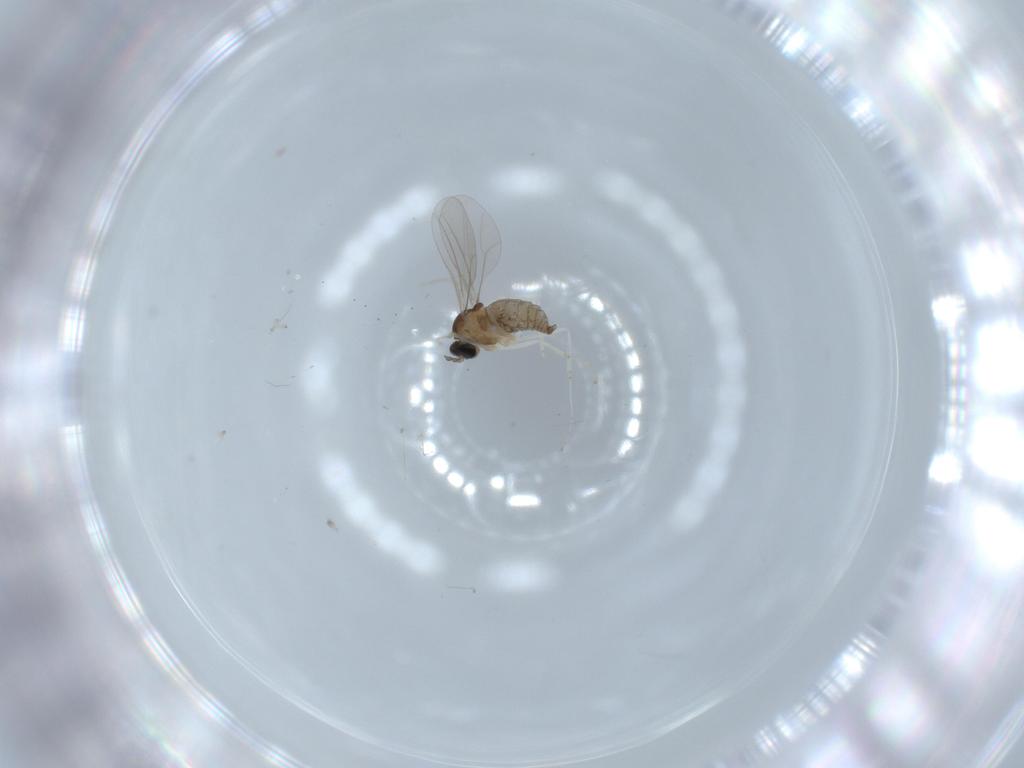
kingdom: Animalia
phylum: Arthropoda
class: Insecta
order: Diptera
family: Cecidomyiidae
